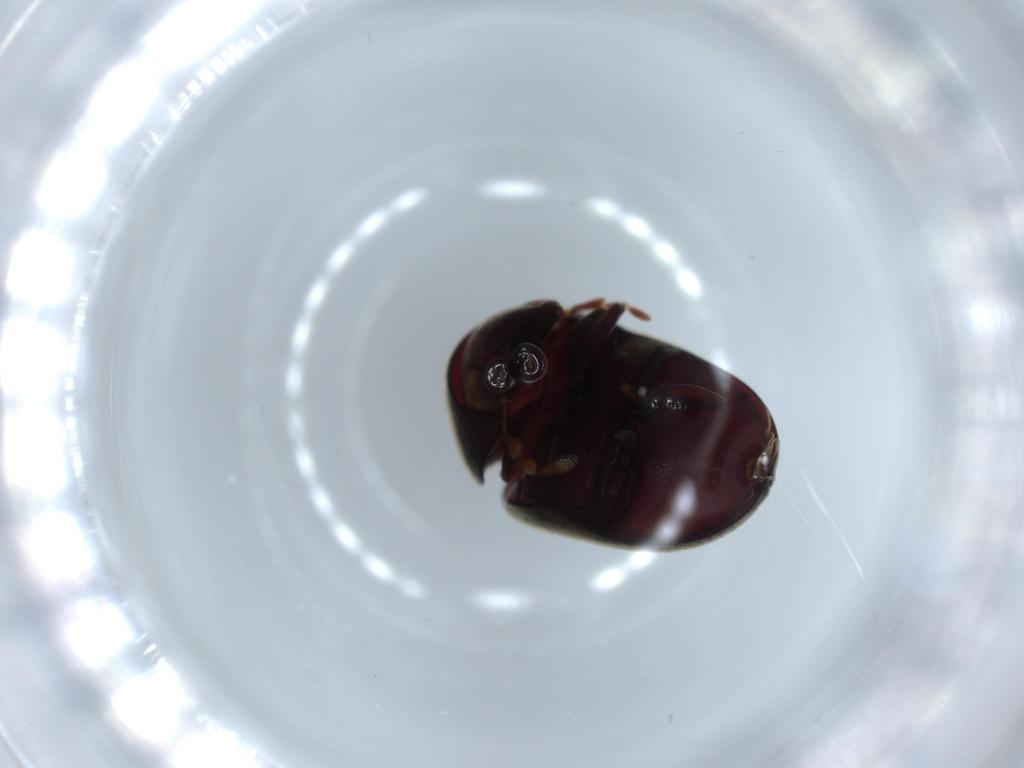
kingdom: Animalia
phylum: Arthropoda
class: Insecta
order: Coleoptera
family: Ptinidae
